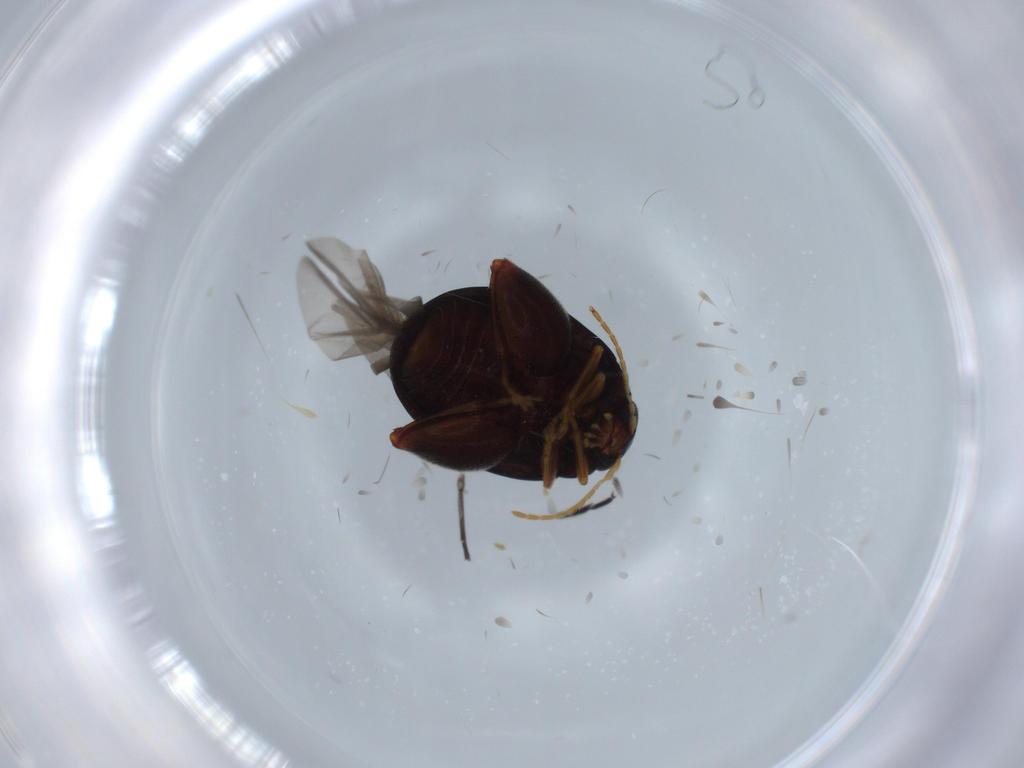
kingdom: Animalia
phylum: Arthropoda
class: Insecta
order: Coleoptera
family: Chrysomelidae
